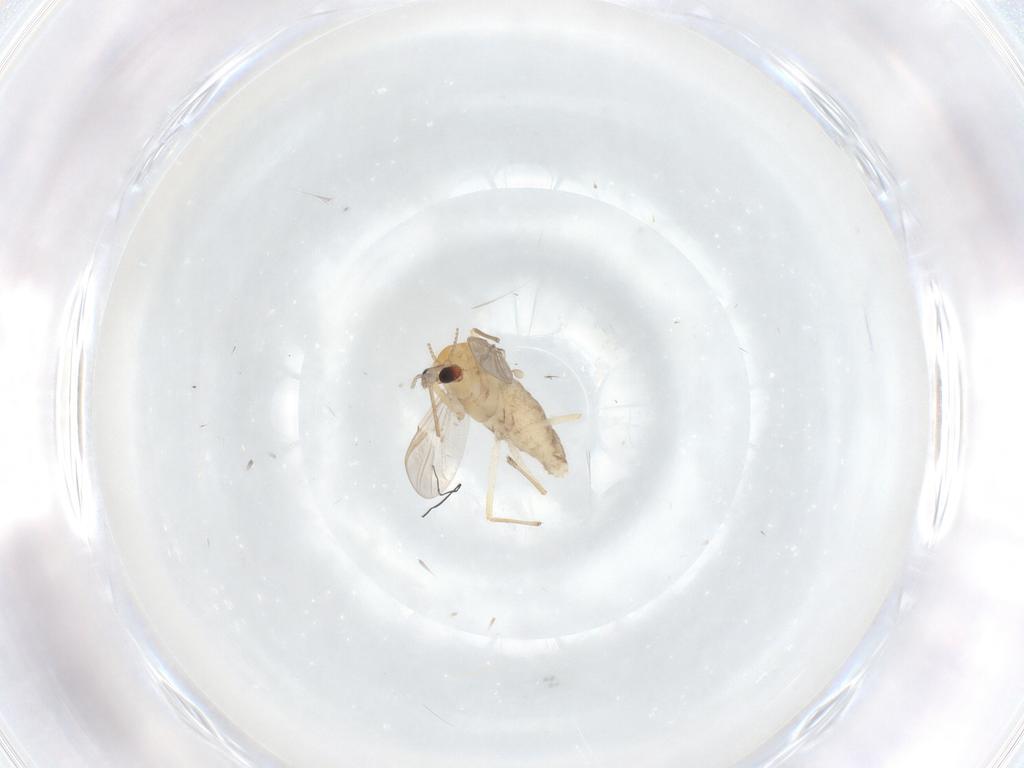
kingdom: Animalia
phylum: Arthropoda
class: Insecta
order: Diptera
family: Chironomidae
